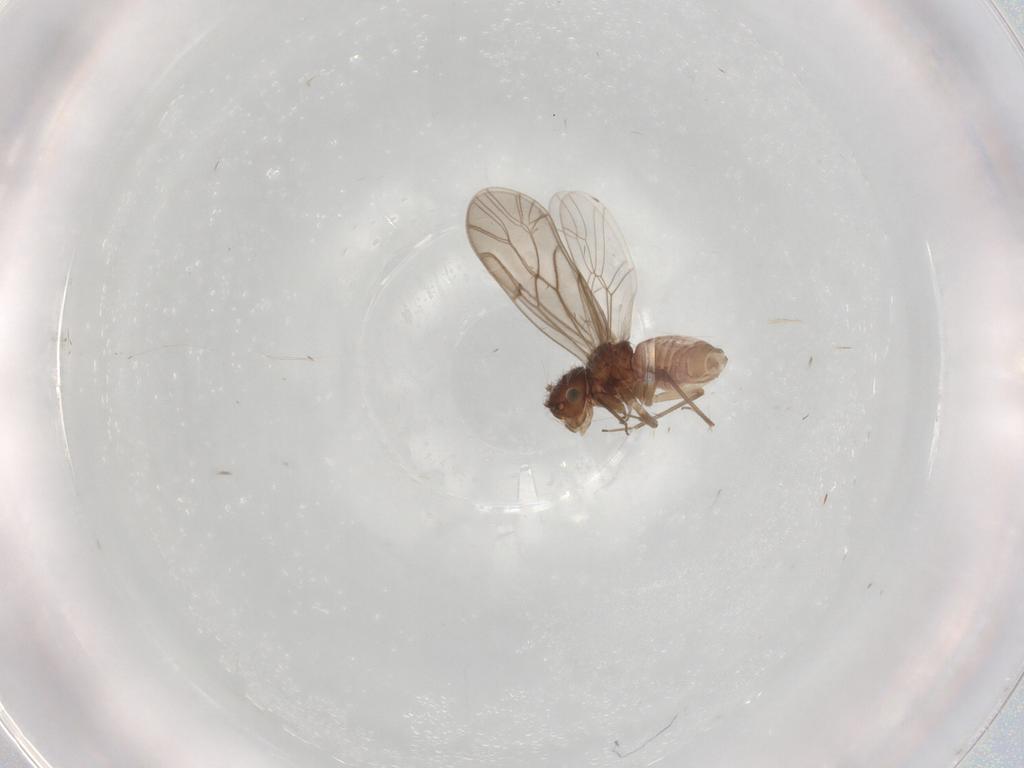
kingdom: Animalia
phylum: Arthropoda
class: Insecta
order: Psocodea
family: Ectopsocidae
